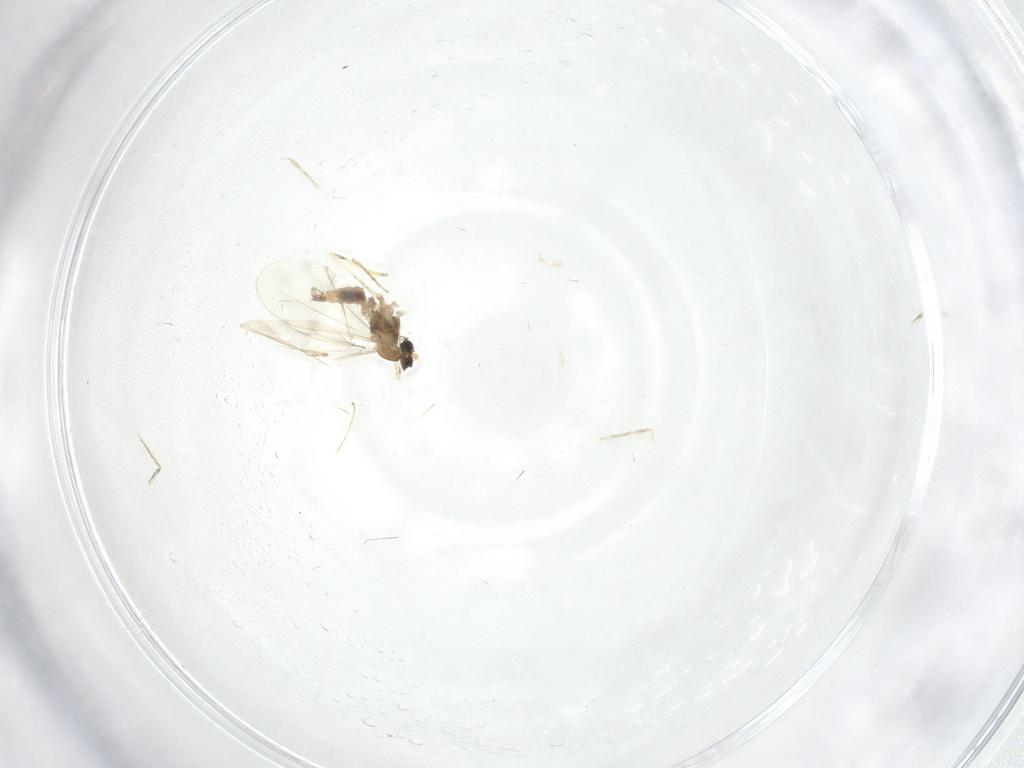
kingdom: Animalia
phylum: Arthropoda
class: Insecta
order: Diptera
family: Cecidomyiidae
